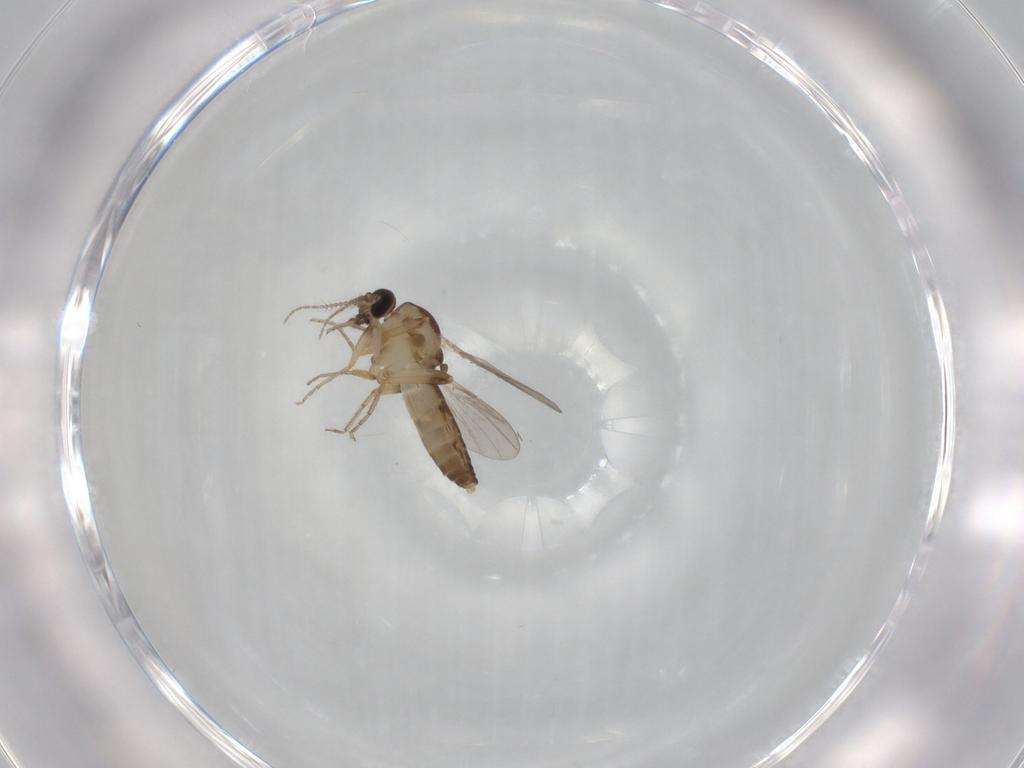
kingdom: Animalia
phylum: Arthropoda
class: Insecta
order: Diptera
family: Ceratopogonidae
